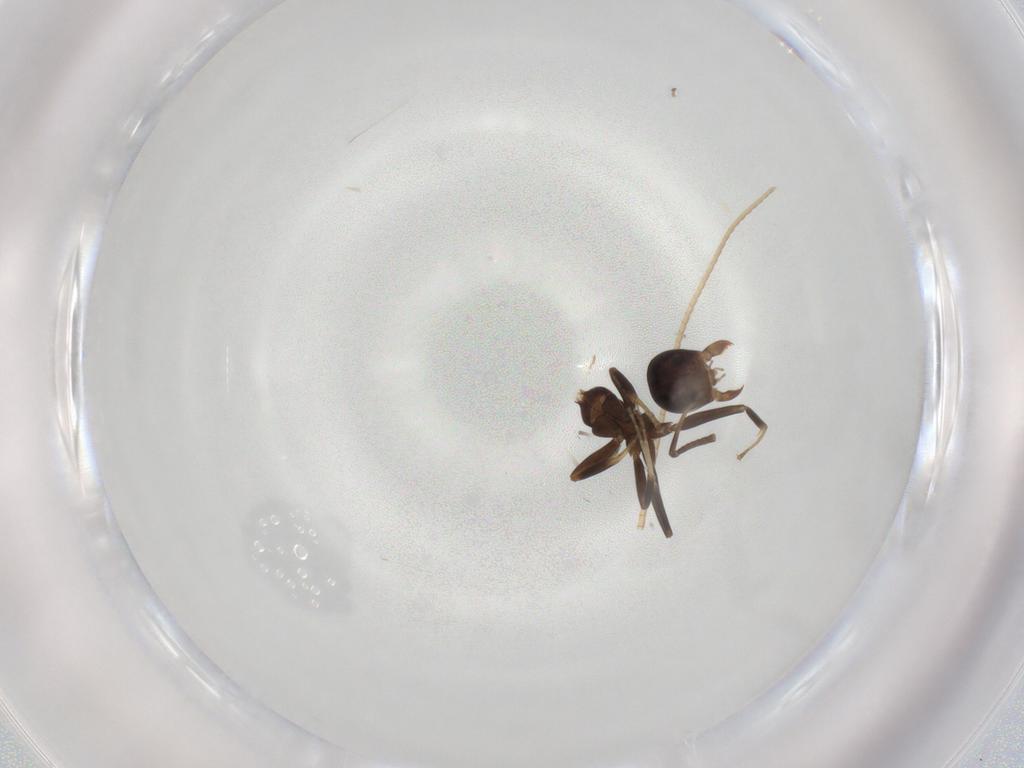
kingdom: Animalia
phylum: Arthropoda
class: Insecta
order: Hymenoptera
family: Formicidae
